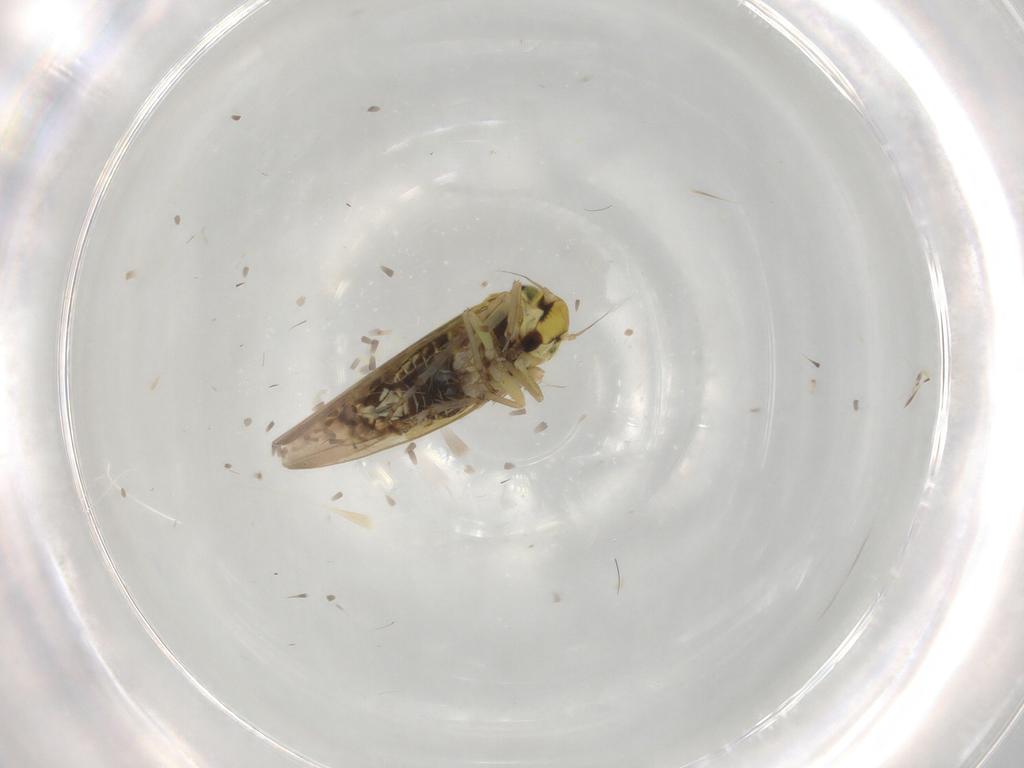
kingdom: Animalia
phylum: Arthropoda
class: Insecta
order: Hemiptera
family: Cicadellidae
